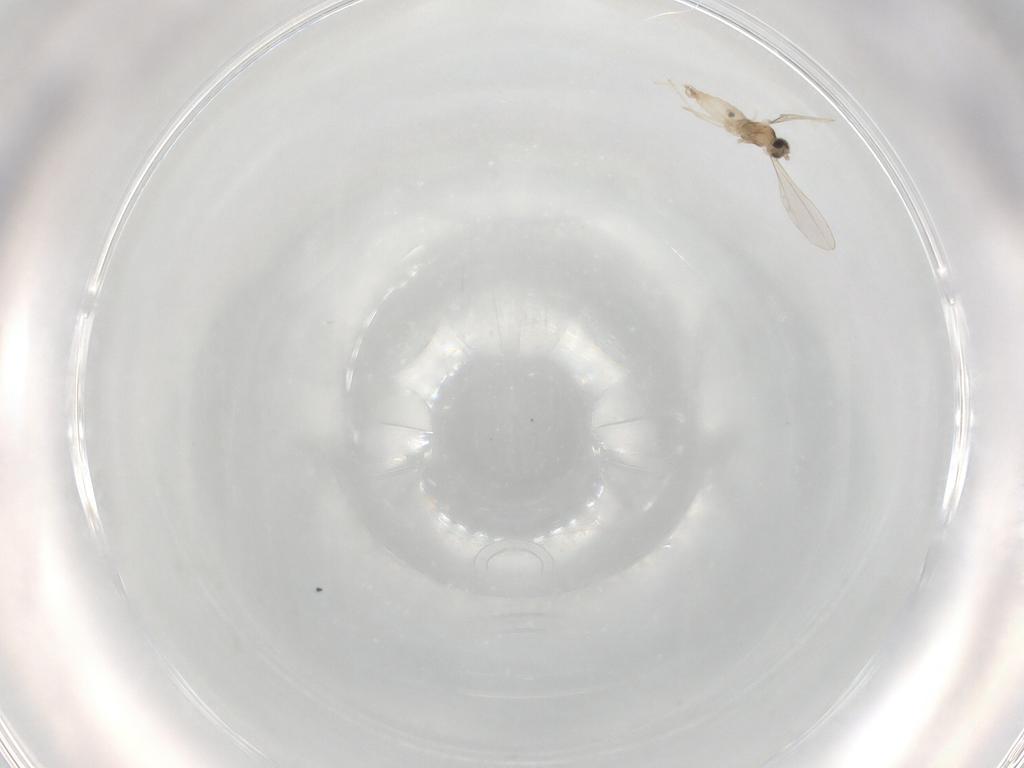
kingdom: Animalia
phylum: Arthropoda
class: Insecta
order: Diptera
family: Cecidomyiidae
